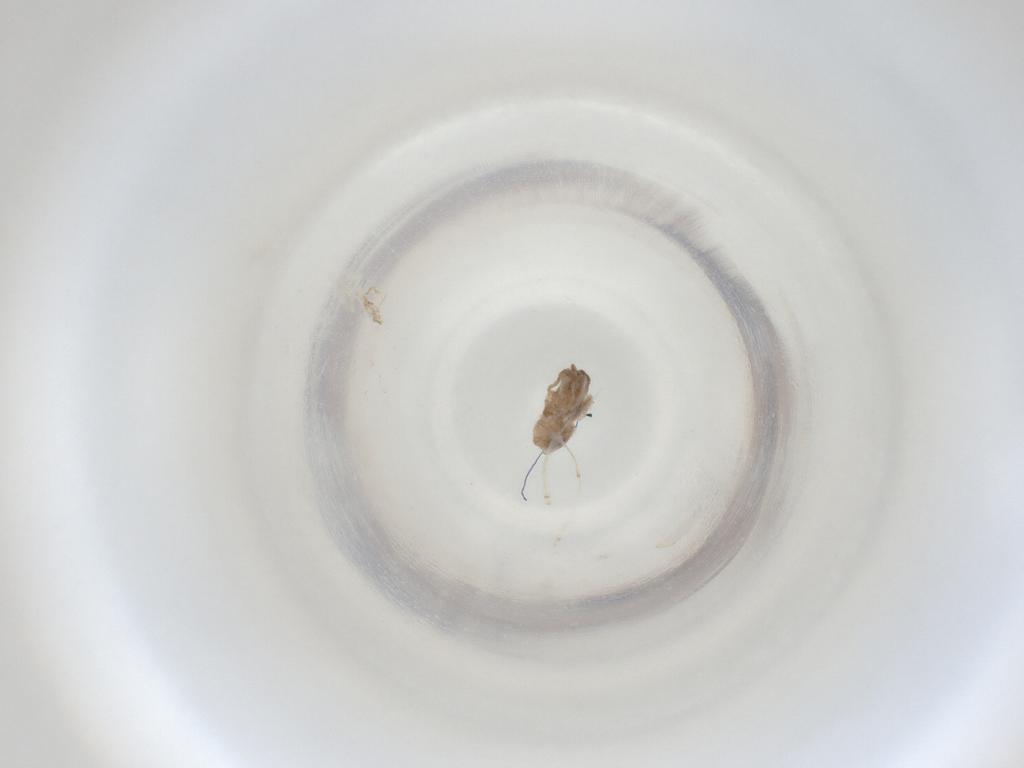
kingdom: Animalia
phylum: Arthropoda
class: Insecta
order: Diptera
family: Cecidomyiidae
